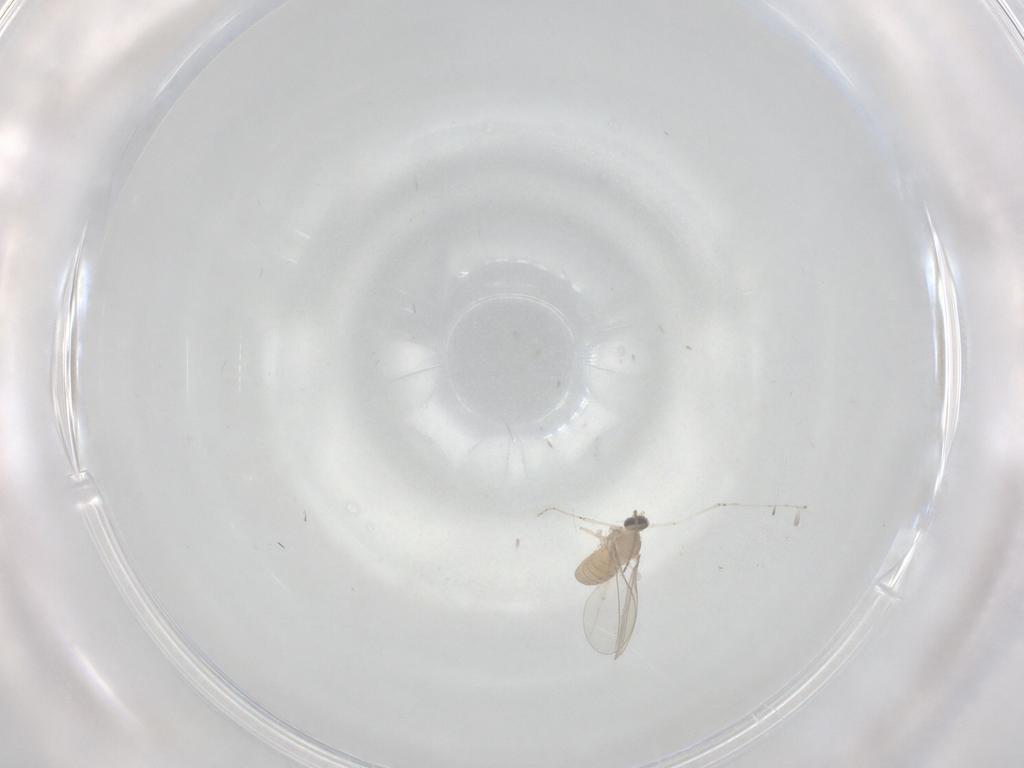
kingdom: Animalia
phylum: Arthropoda
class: Insecta
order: Diptera
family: Cecidomyiidae
